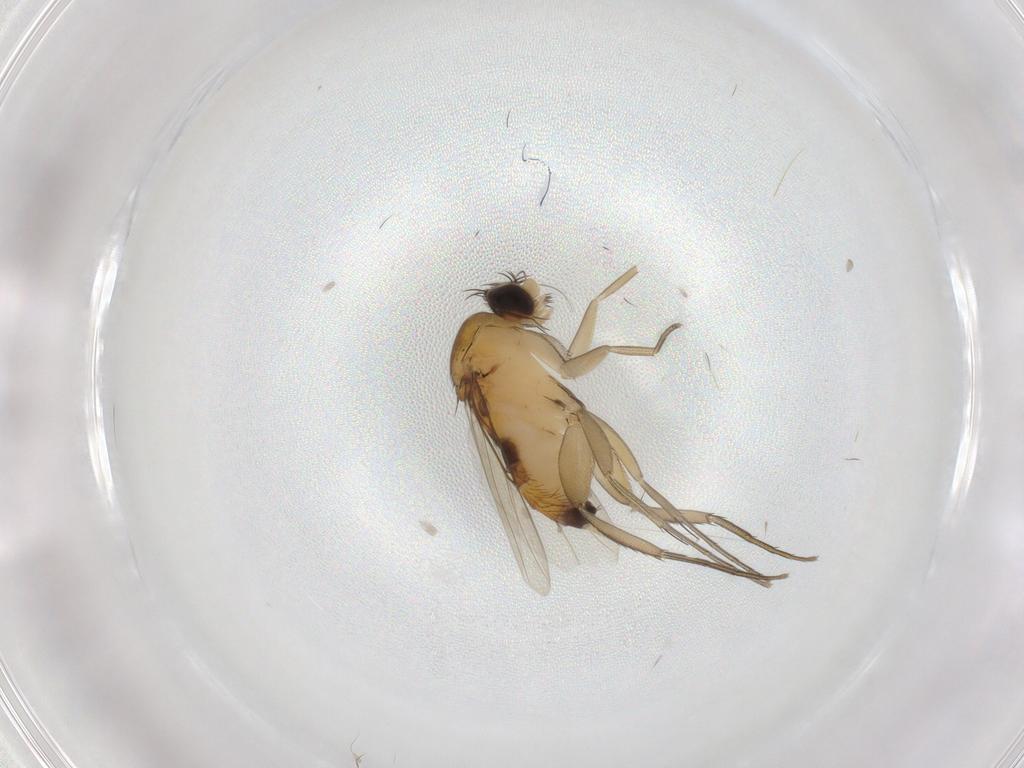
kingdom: Animalia
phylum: Arthropoda
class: Insecta
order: Diptera
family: Phoridae
